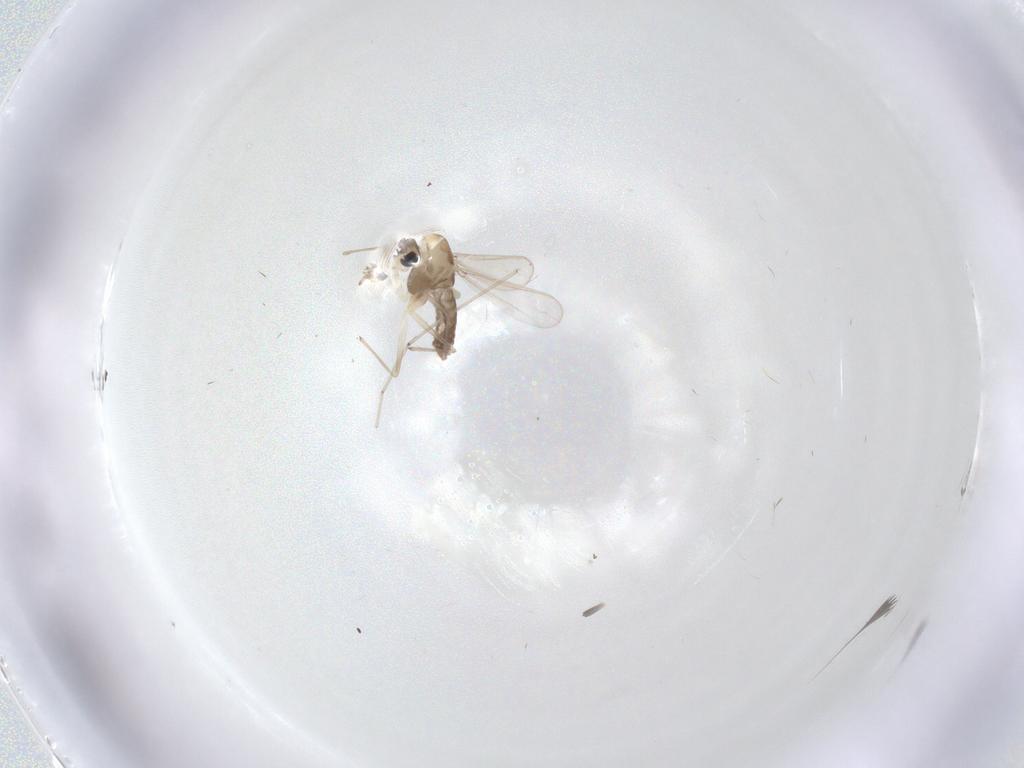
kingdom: Animalia
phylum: Arthropoda
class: Insecta
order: Diptera
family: Chironomidae
